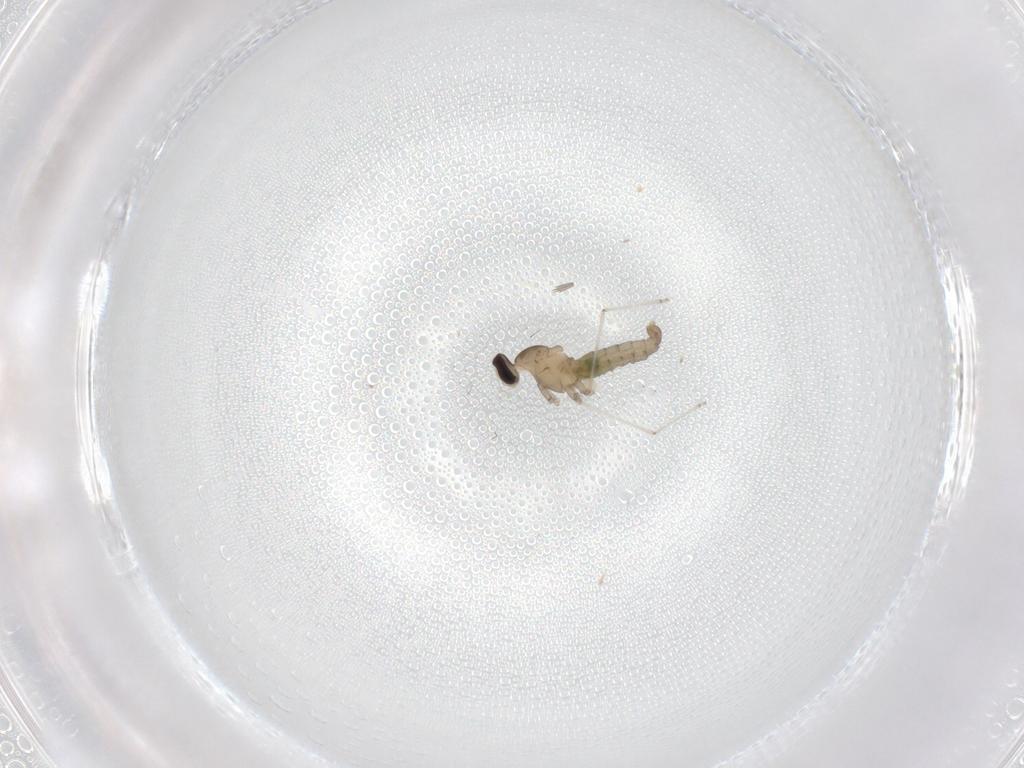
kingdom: Animalia
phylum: Arthropoda
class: Insecta
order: Diptera
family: Cecidomyiidae
